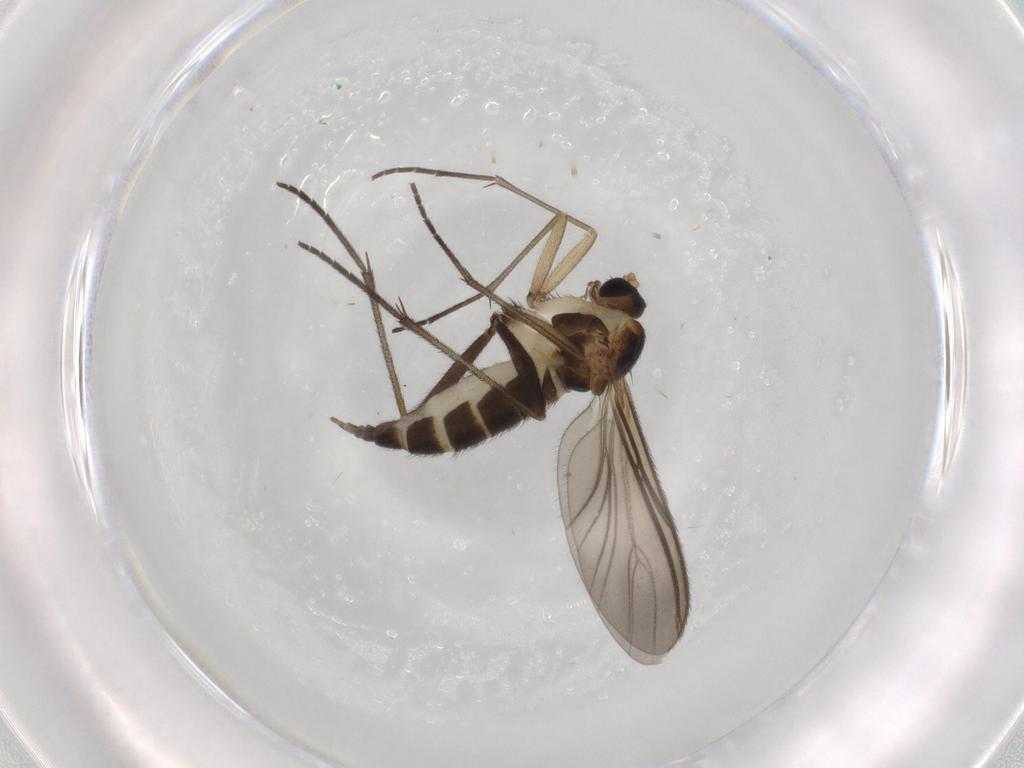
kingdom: Animalia
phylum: Arthropoda
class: Insecta
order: Diptera
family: Sciaridae
